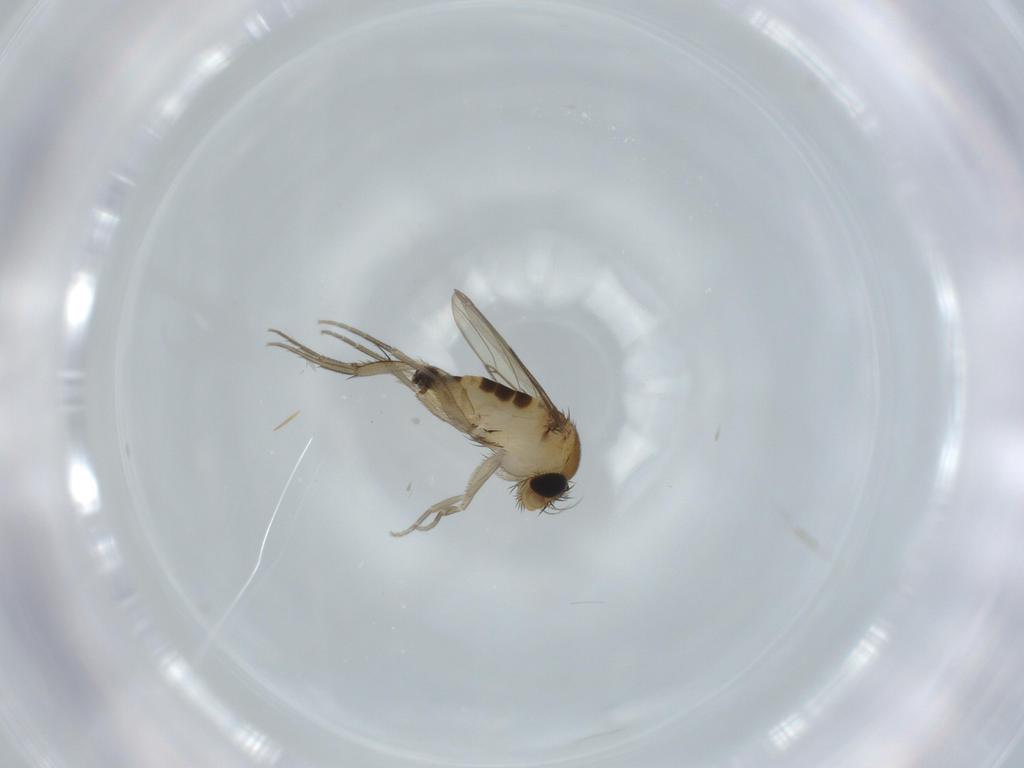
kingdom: Animalia
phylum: Arthropoda
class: Insecta
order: Diptera
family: Phoridae
